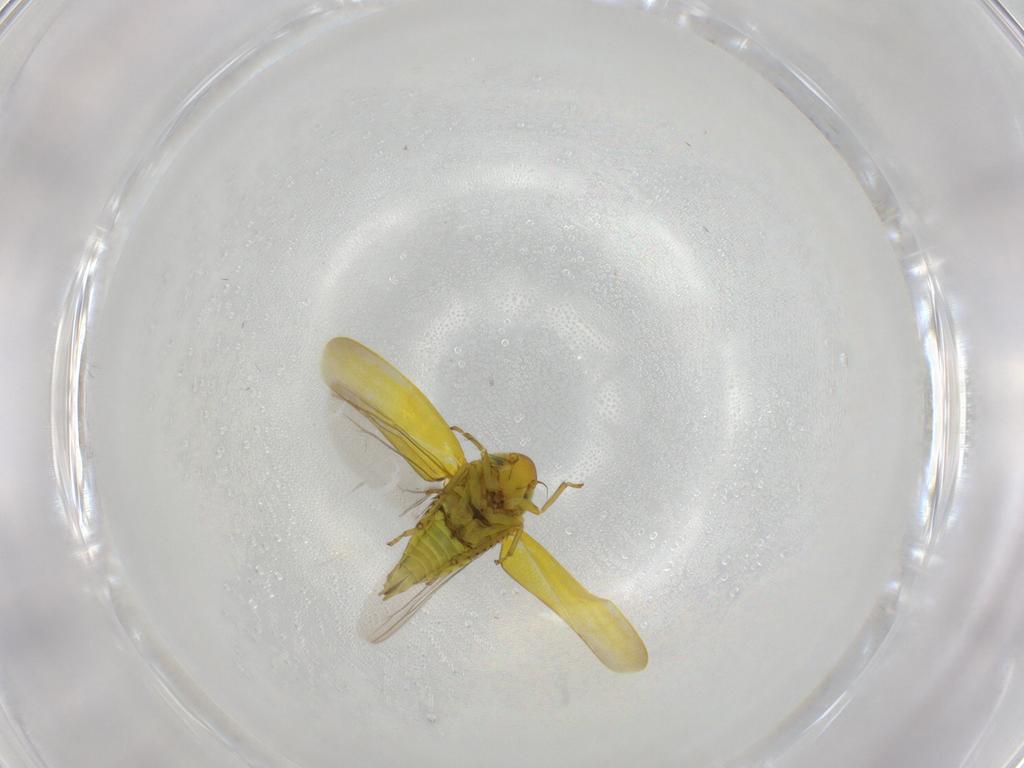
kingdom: Animalia
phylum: Arthropoda
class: Insecta
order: Hemiptera
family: Cicadellidae
